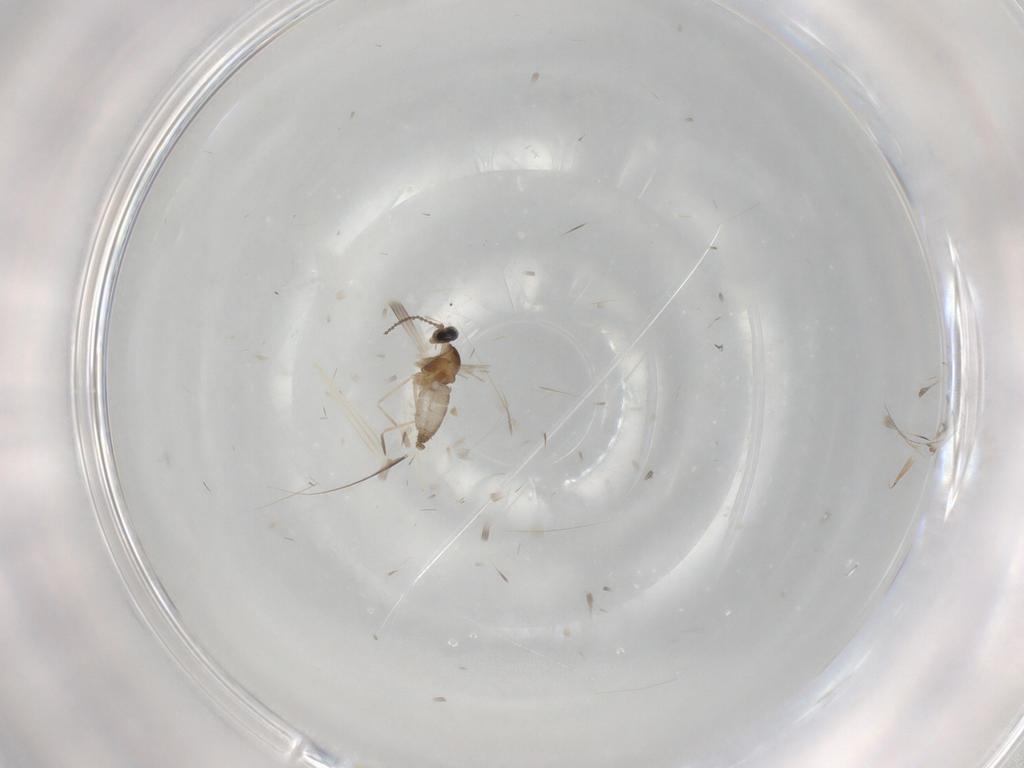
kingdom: Animalia
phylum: Arthropoda
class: Insecta
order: Diptera
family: Cecidomyiidae
